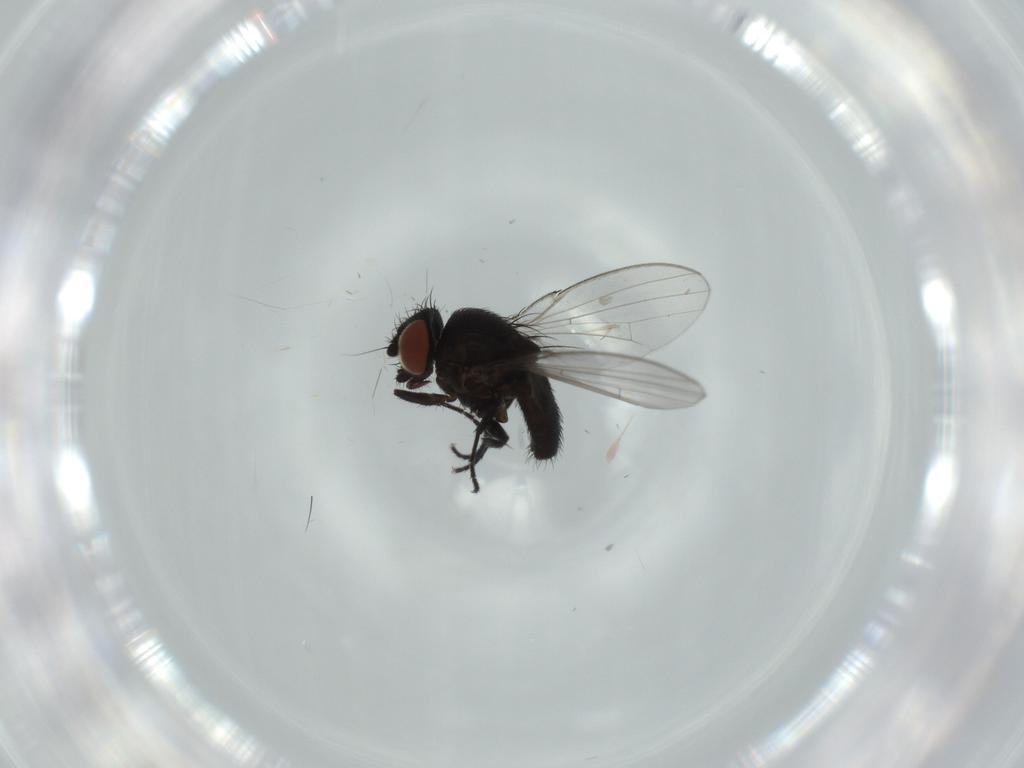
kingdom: Animalia
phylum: Arthropoda
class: Insecta
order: Diptera
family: Milichiidae
